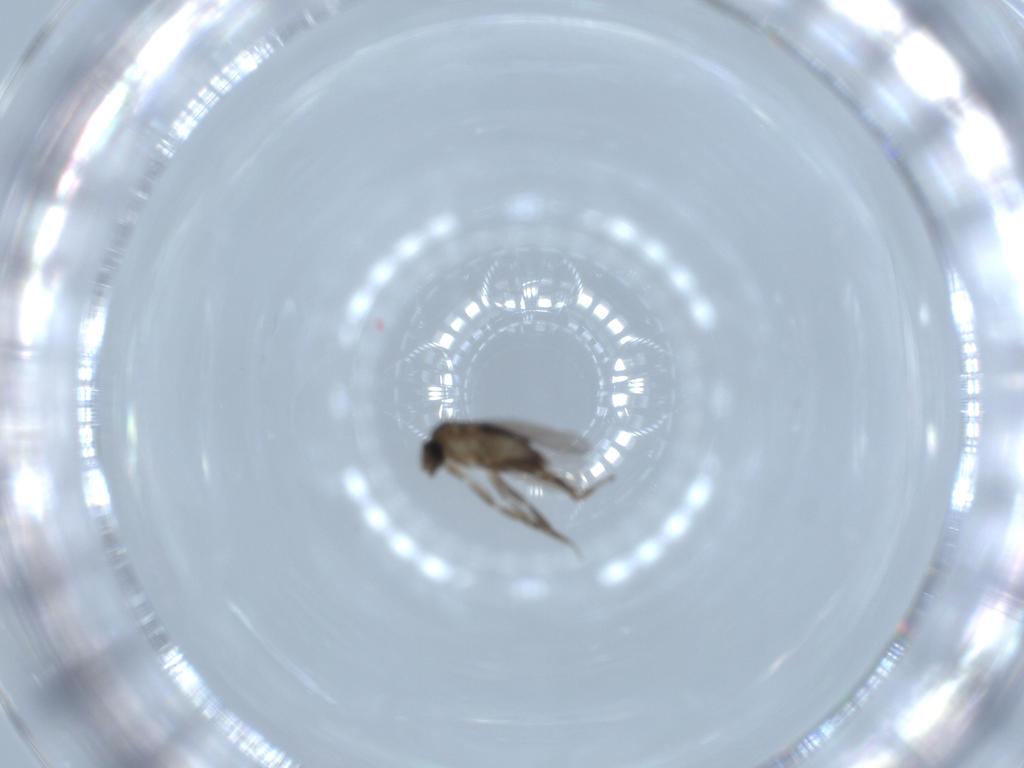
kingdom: Animalia
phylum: Arthropoda
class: Insecta
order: Diptera
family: Phoridae
